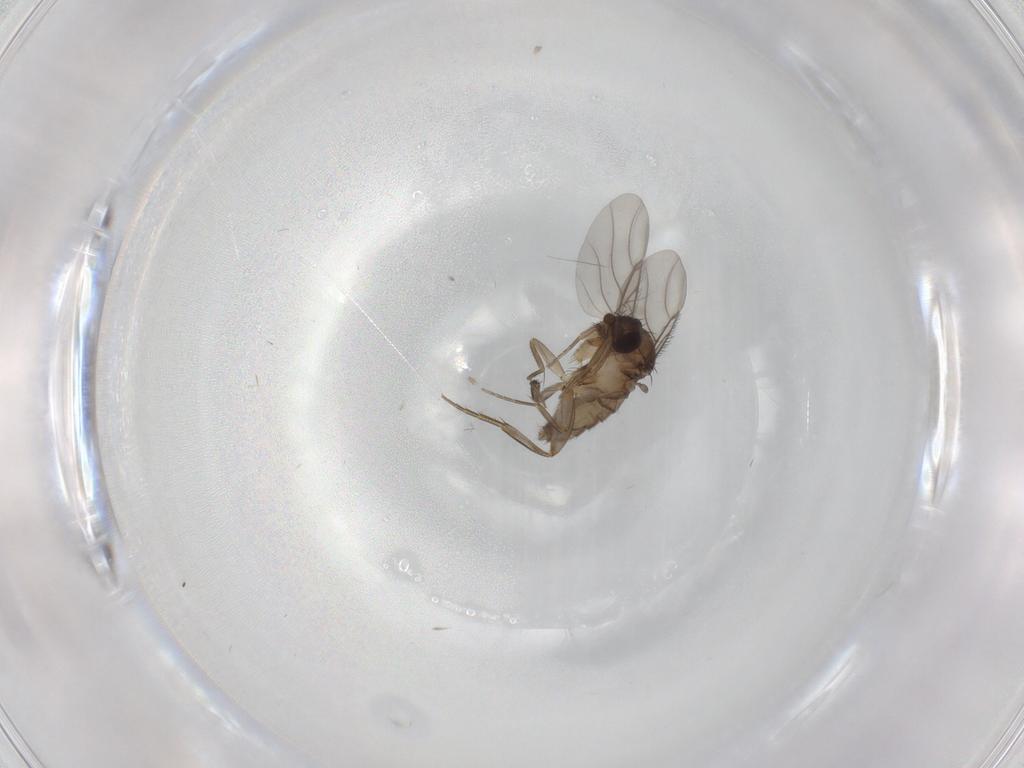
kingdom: Animalia
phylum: Arthropoda
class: Insecta
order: Diptera
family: Phoridae
